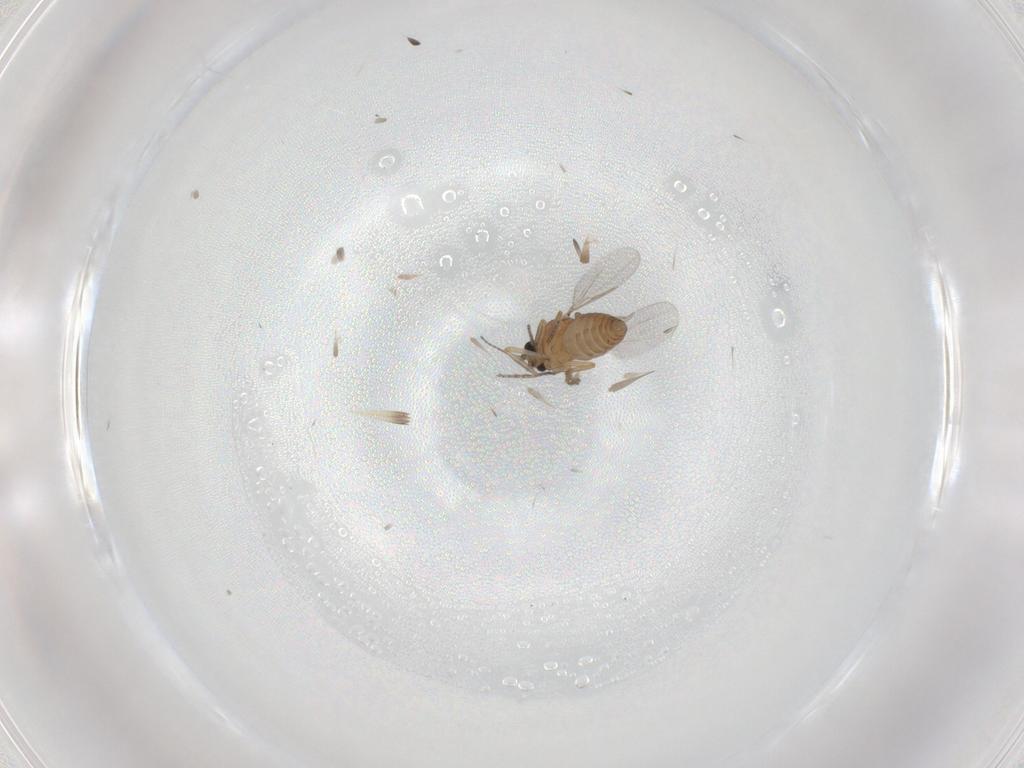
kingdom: Animalia
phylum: Arthropoda
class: Insecta
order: Diptera
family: Ceratopogonidae
